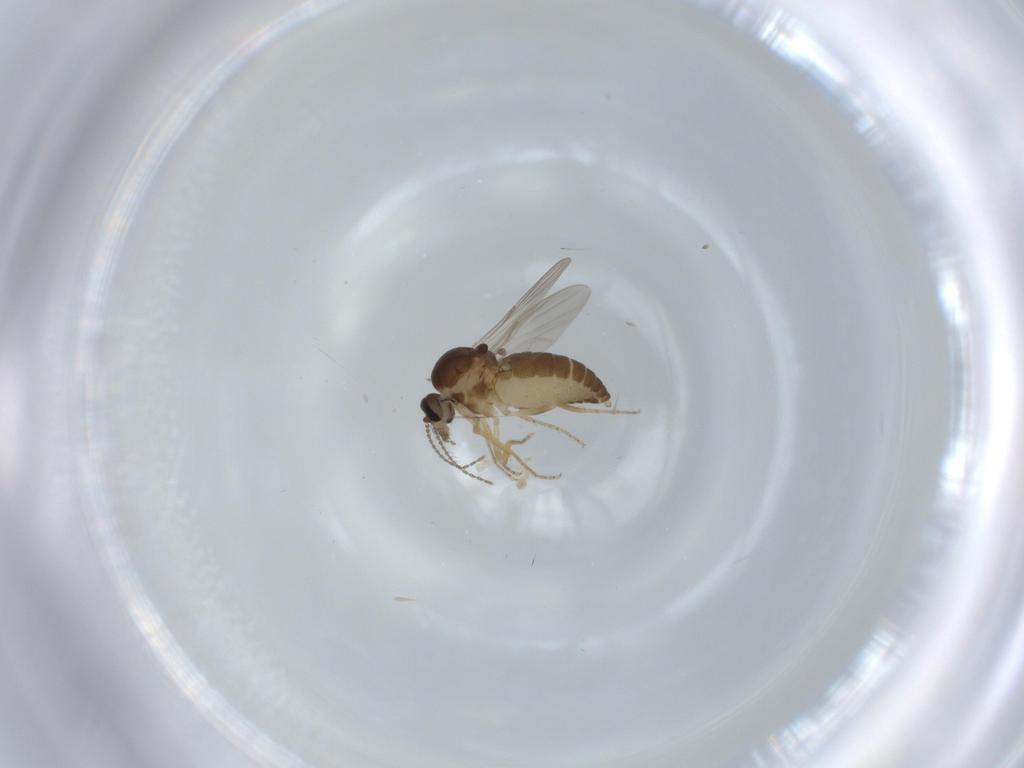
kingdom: Animalia
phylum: Arthropoda
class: Insecta
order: Diptera
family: Ceratopogonidae
